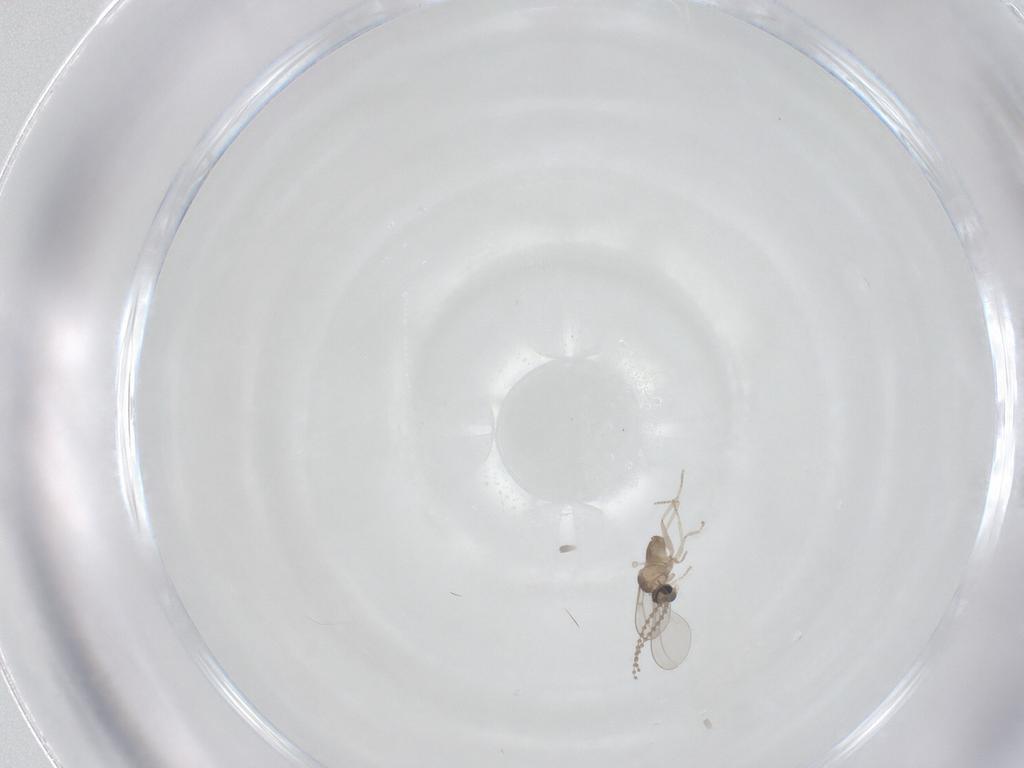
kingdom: Animalia
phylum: Arthropoda
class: Insecta
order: Diptera
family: Cecidomyiidae
